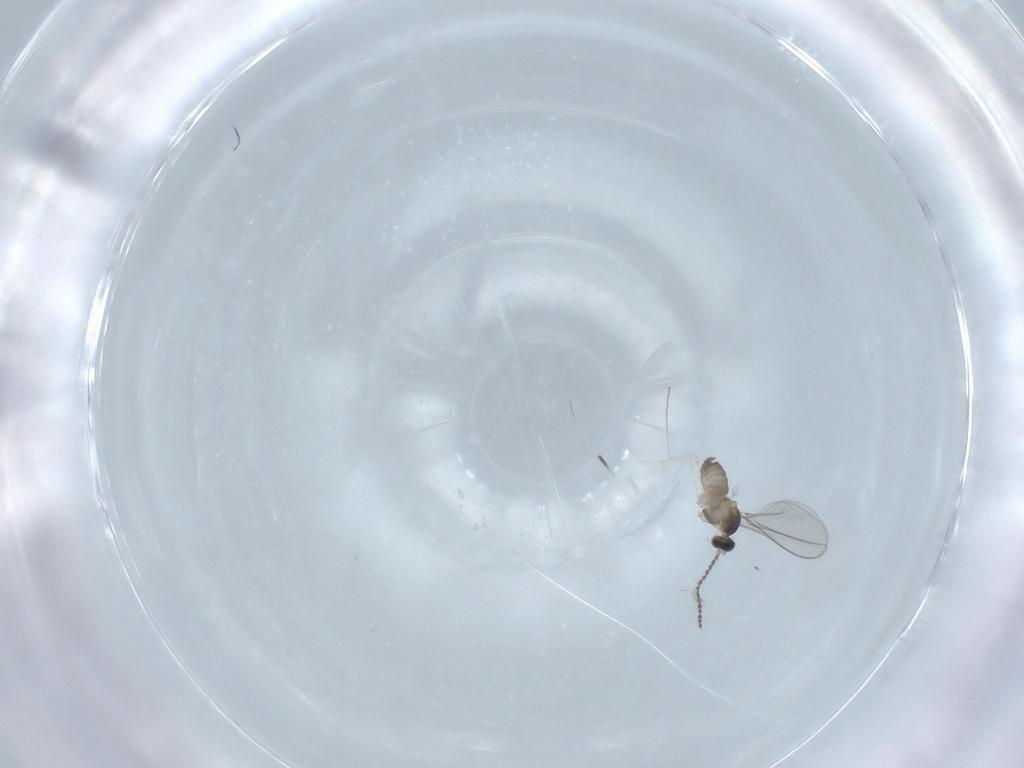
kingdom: Animalia
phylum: Arthropoda
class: Insecta
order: Diptera
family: Cecidomyiidae
